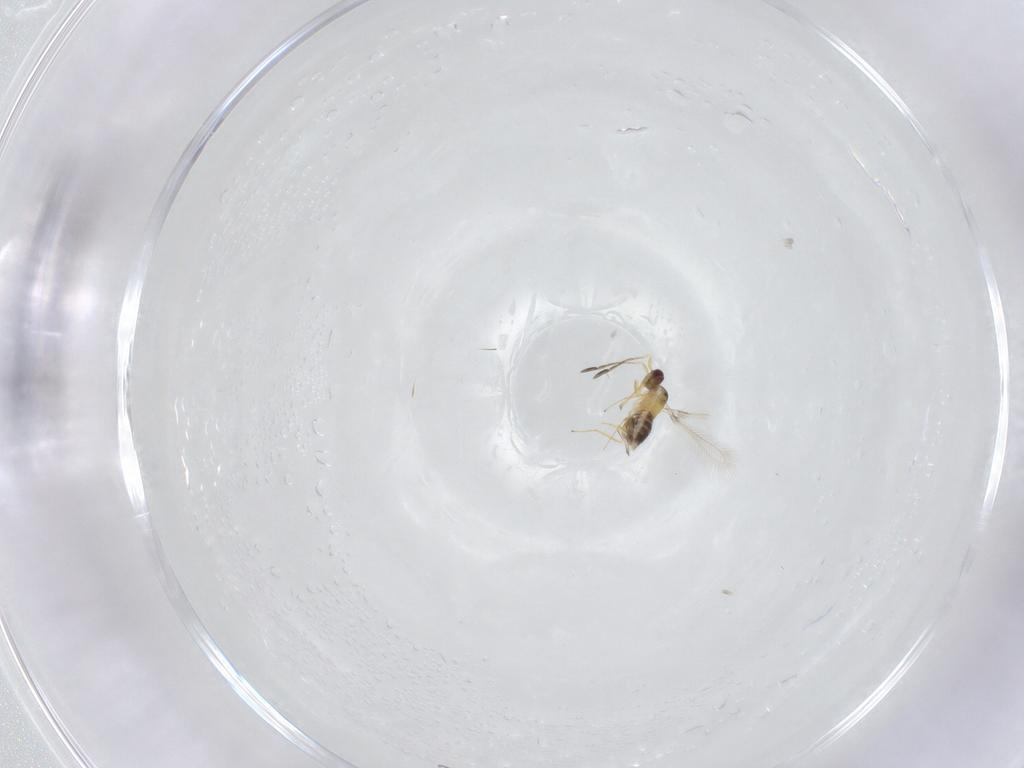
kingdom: Animalia
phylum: Arthropoda
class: Insecta
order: Hymenoptera
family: Mymaridae
